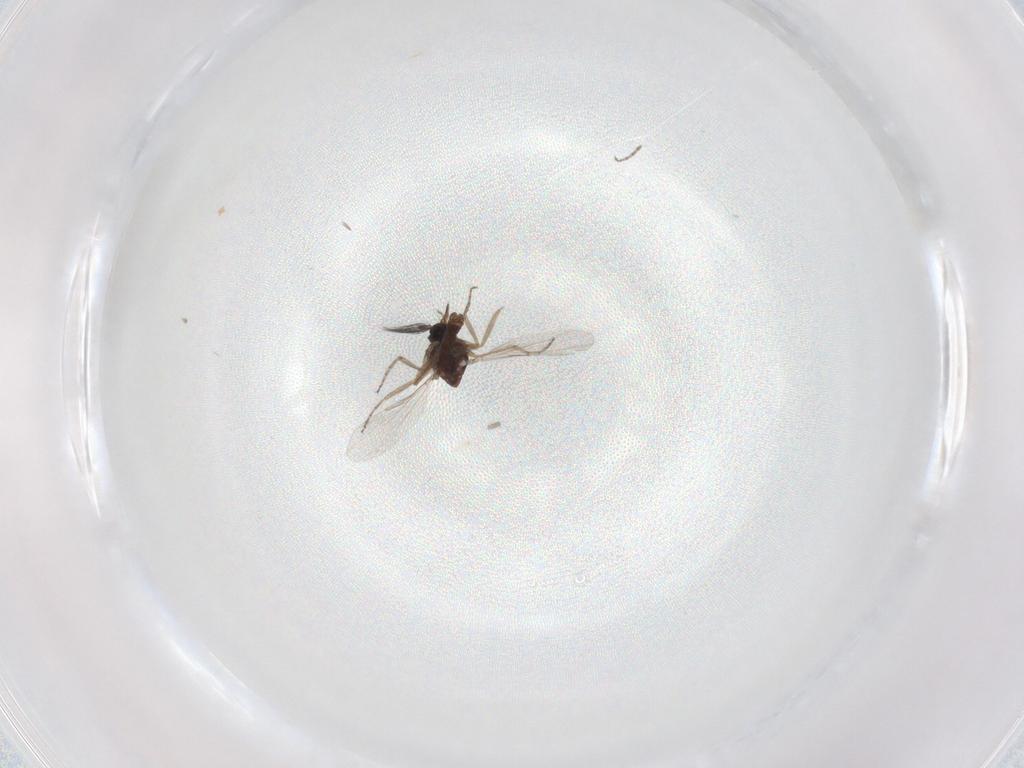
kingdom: Animalia
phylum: Arthropoda
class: Insecta
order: Diptera
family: Ceratopogonidae
